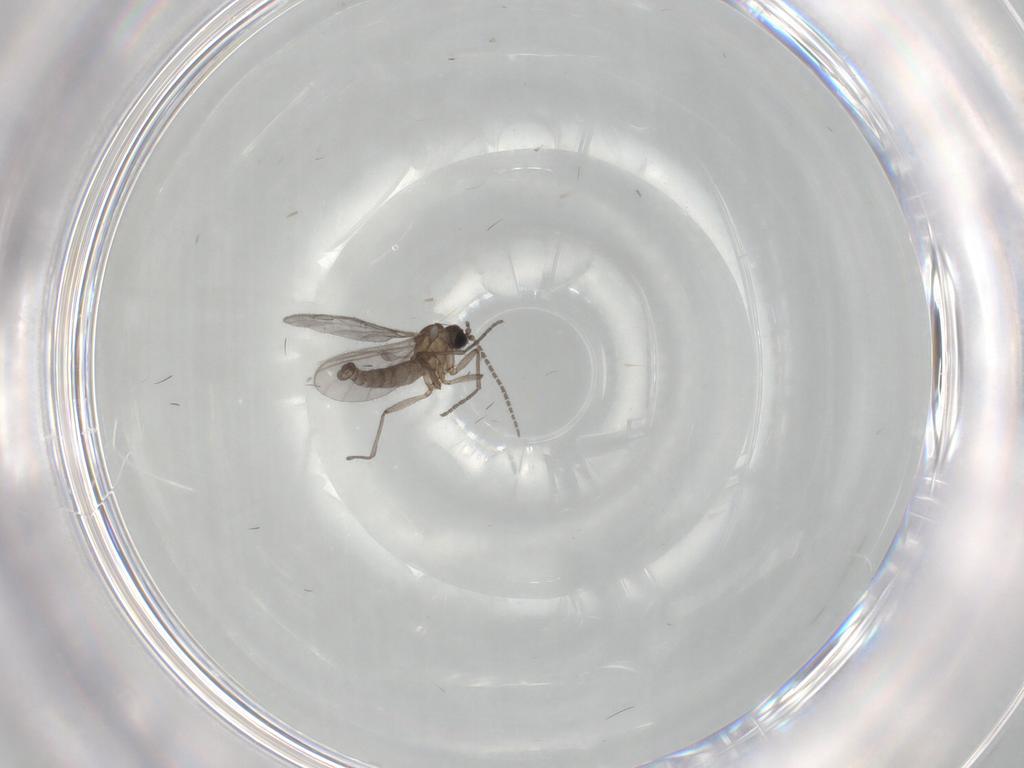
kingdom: Animalia
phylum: Arthropoda
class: Insecta
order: Diptera
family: Sciaridae
